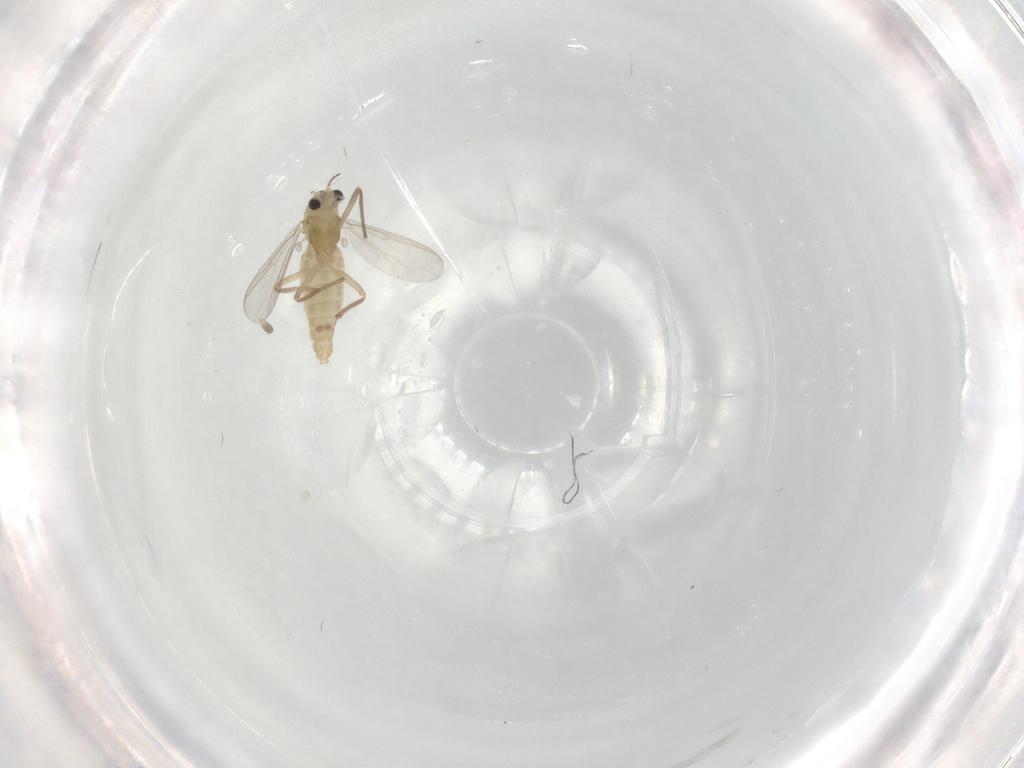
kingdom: Animalia
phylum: Arthropoda
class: Insecta
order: Diptera
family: Chironomidae
